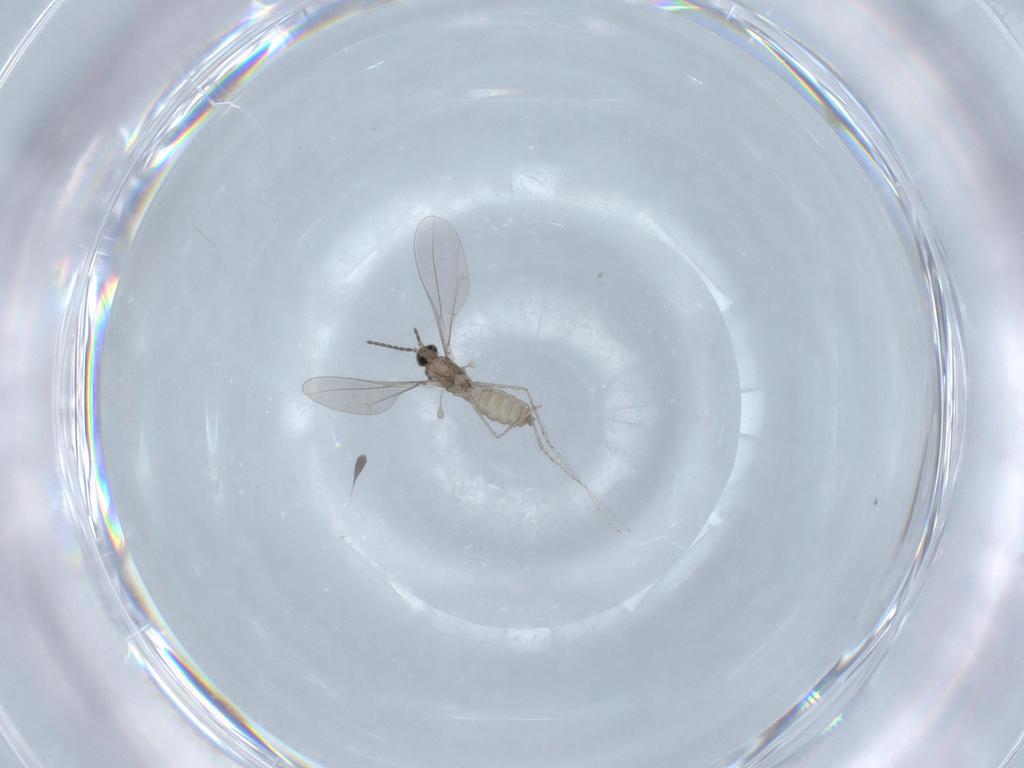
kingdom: Animalia
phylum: Arthropoda
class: Insecta
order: Diptera
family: Cecidomyiidae
